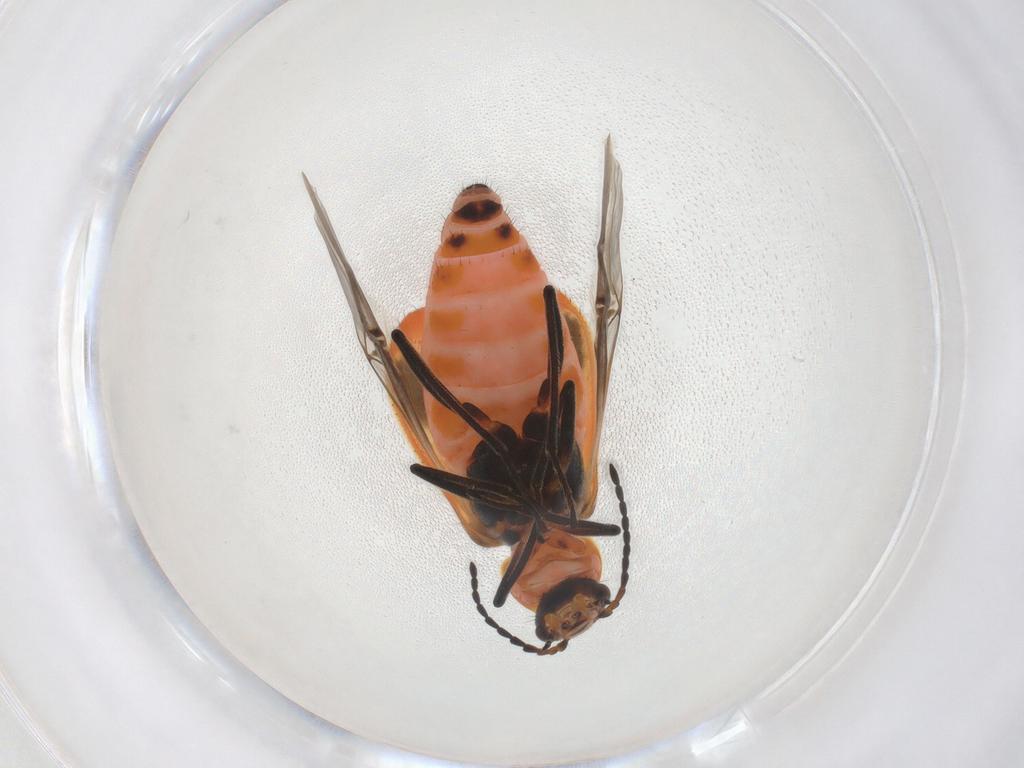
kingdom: Animalia
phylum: Arthropoda
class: Insecta
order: Coleoptera
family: Melyridae
